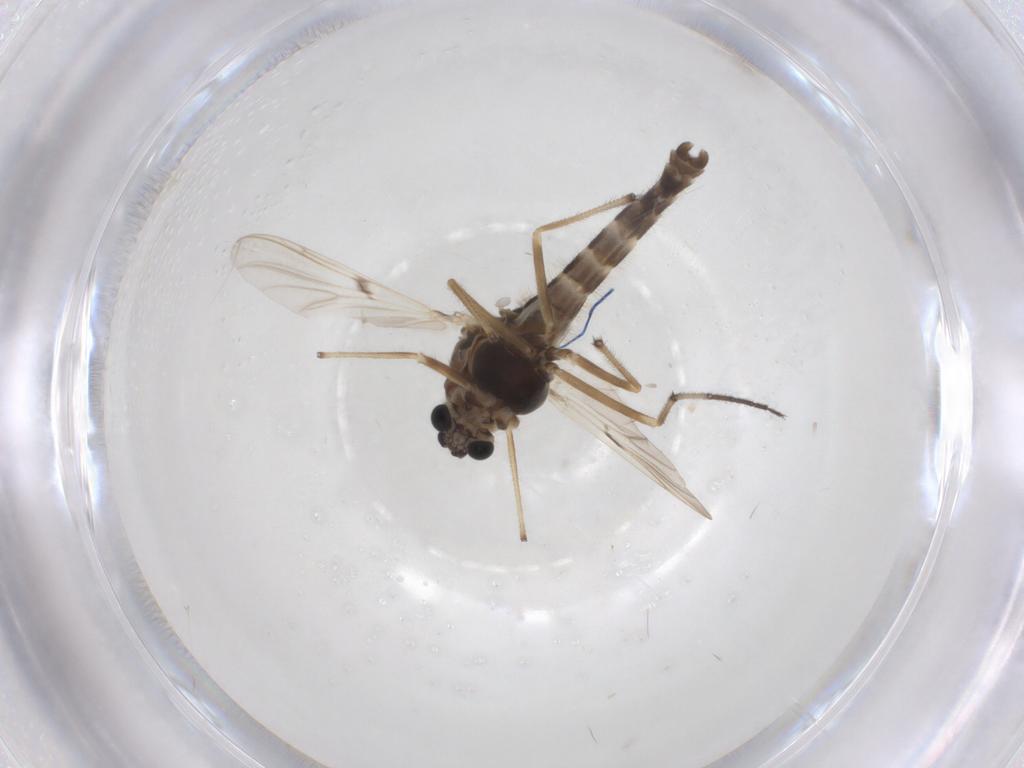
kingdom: Animalia
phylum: Arthropoda
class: Insecta
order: Diptera
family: Chironomidae
